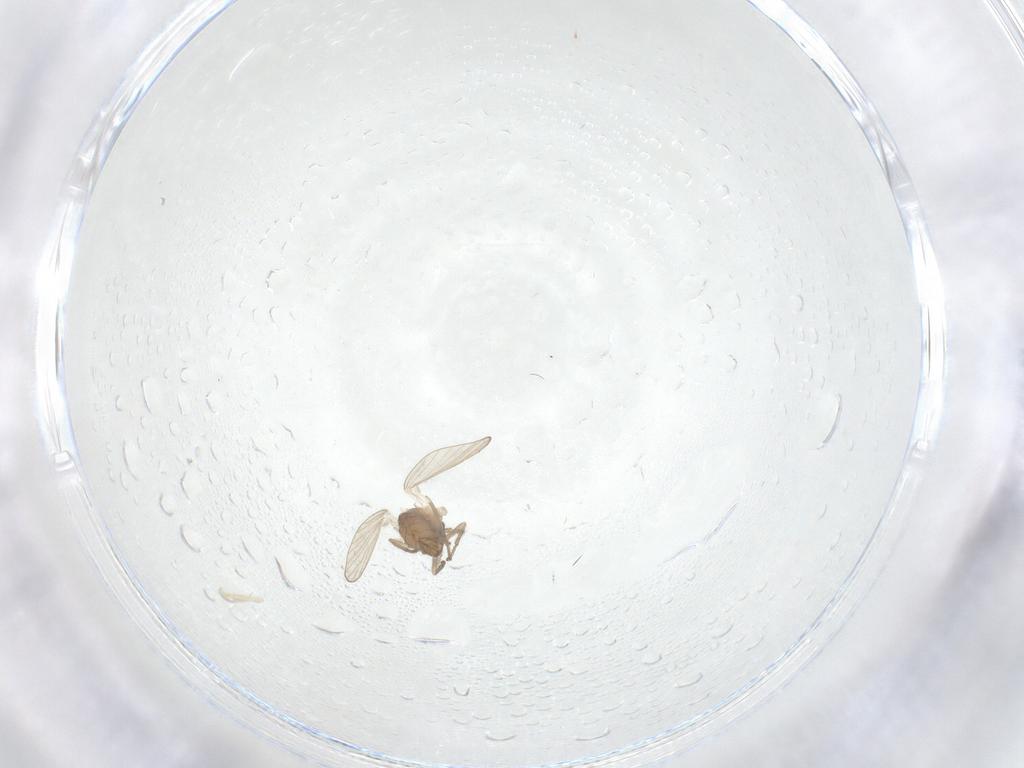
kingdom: Animalia
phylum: Arthropoda
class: Insecta
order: Diptera
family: Psychodidae
